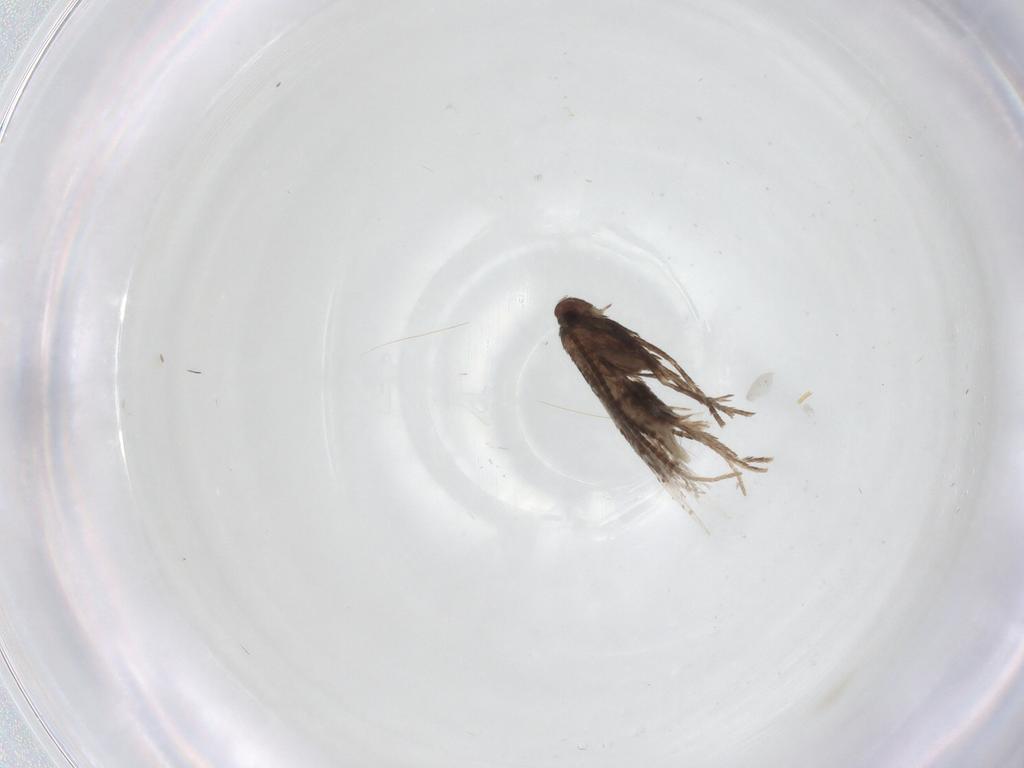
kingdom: Animalia
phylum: Arthropoda
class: Insecta
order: Lepidoptera
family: Gracillariidae
